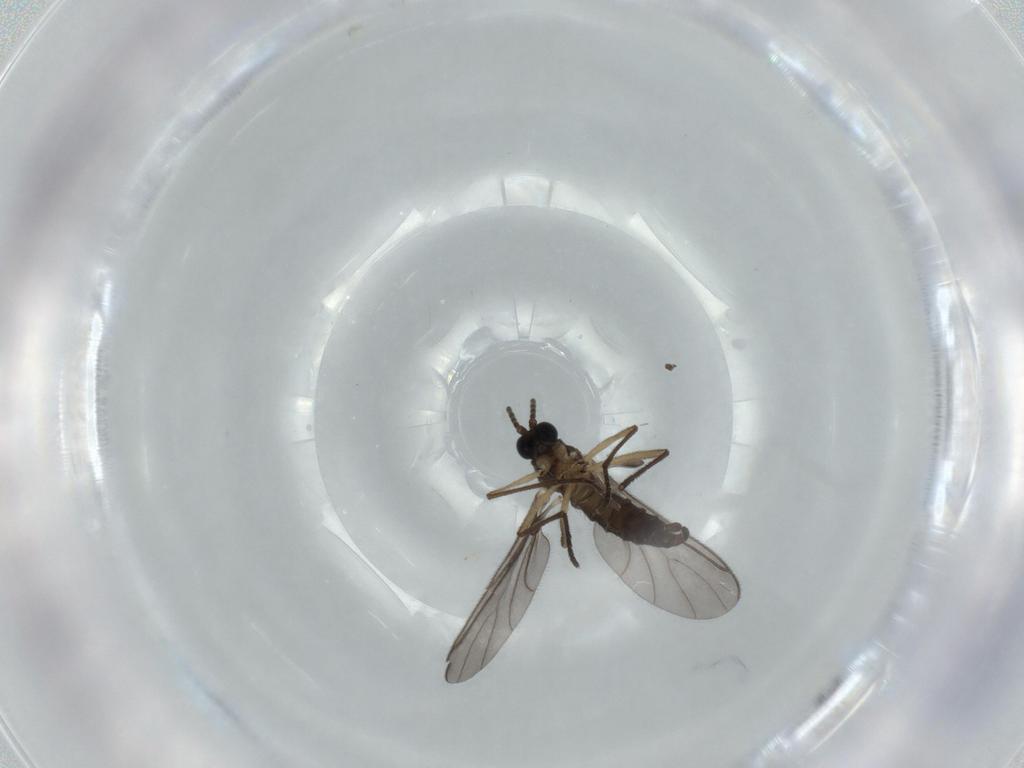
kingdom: Animalia
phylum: Arthropoda
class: Insecta
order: Diptera
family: Sciaridae
